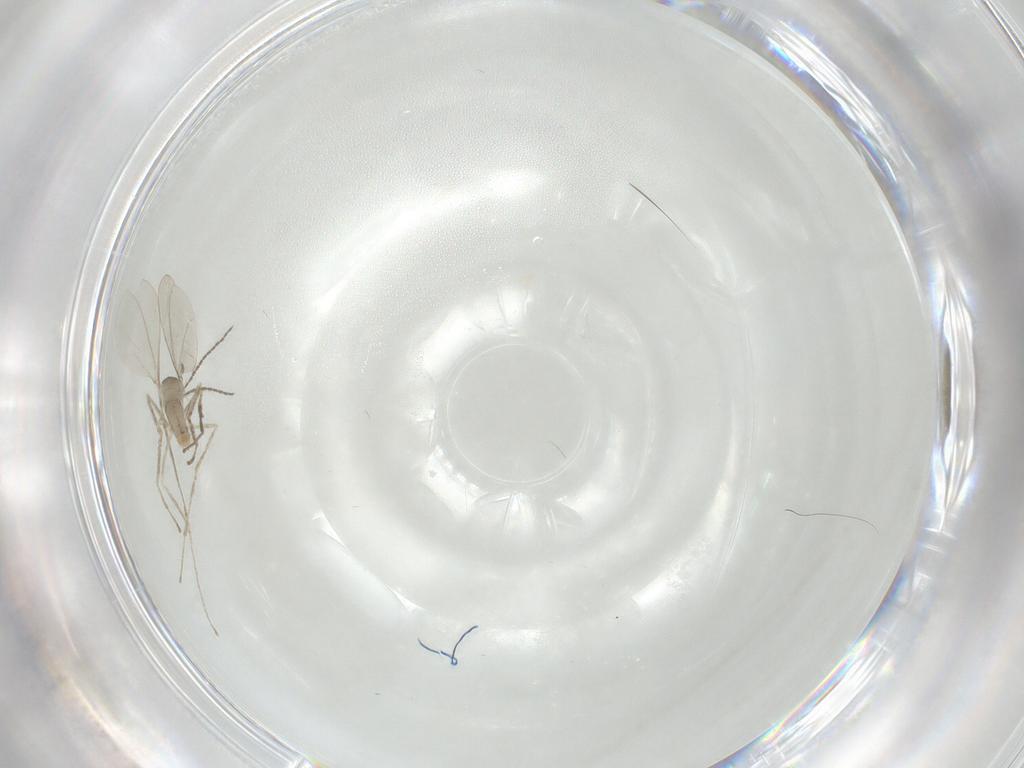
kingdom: Animalia
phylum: Arthropoda
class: Insecta
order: Diptera
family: Cecidomyiidae
